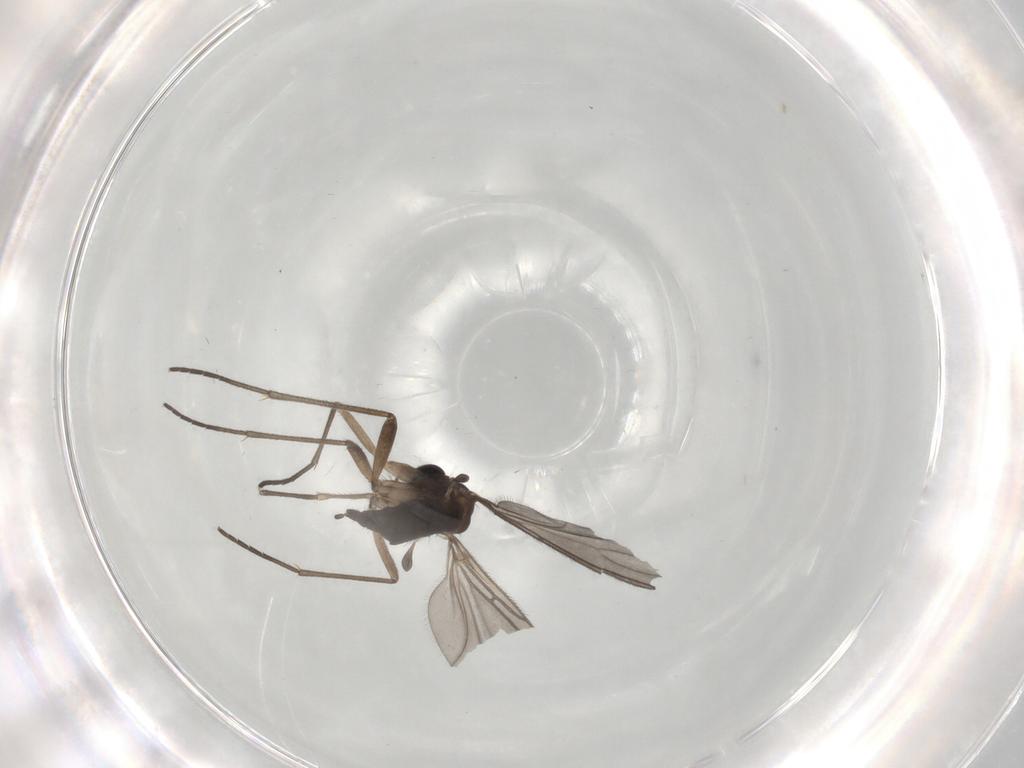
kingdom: Animalia
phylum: Arthropoda
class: Insecta
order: Diptera
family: Sciaridae
